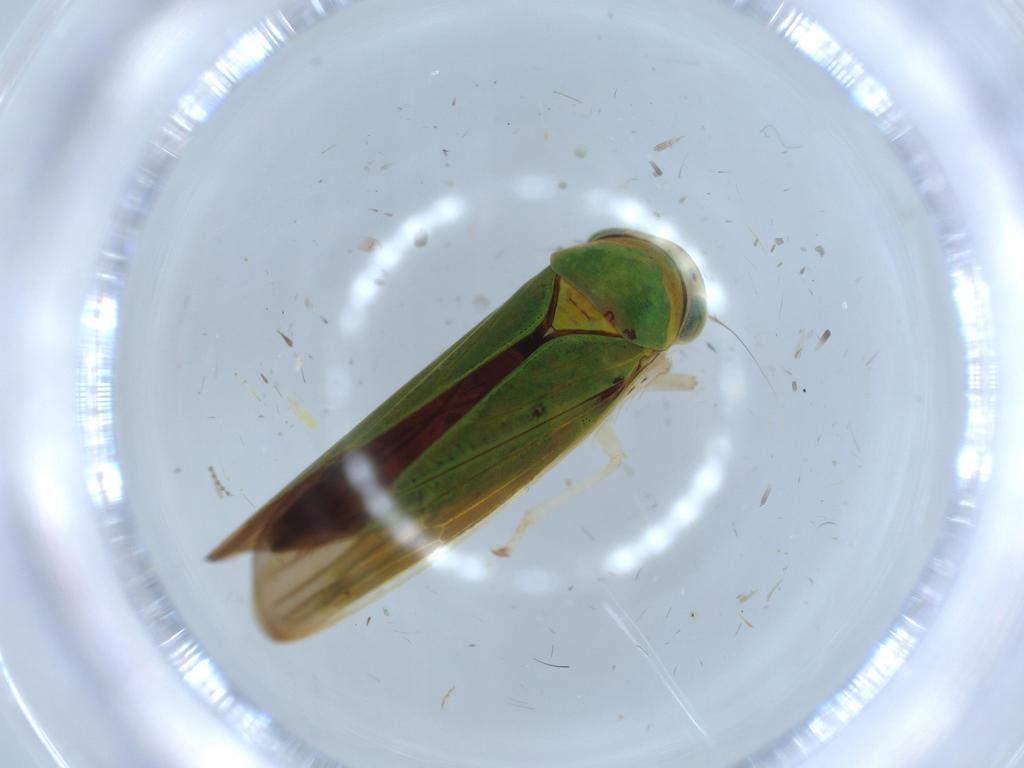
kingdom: Animalia
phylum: Arthropoda
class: Insecta
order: Hemiptera
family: Cicadellidae
